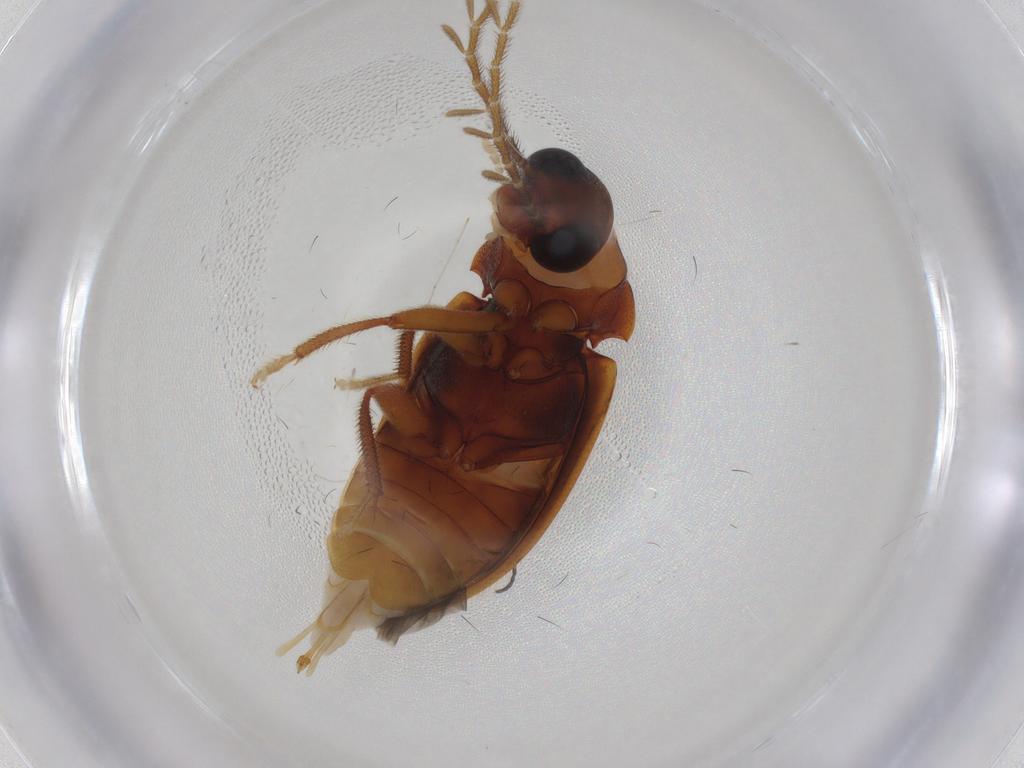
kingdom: Animalia
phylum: Arthropoda
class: Insecta
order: Coleoptera
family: Ptilodactylidae
